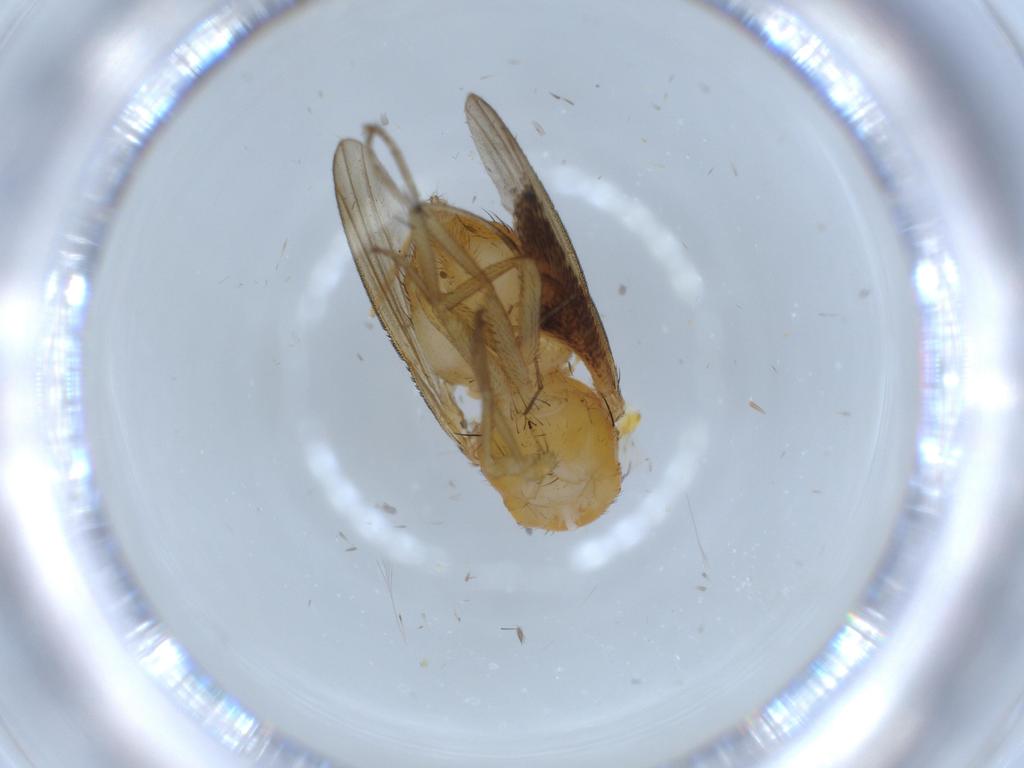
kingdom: Animalia
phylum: Arthropoda
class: Insecta
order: Diptera
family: Lauxaniidae
